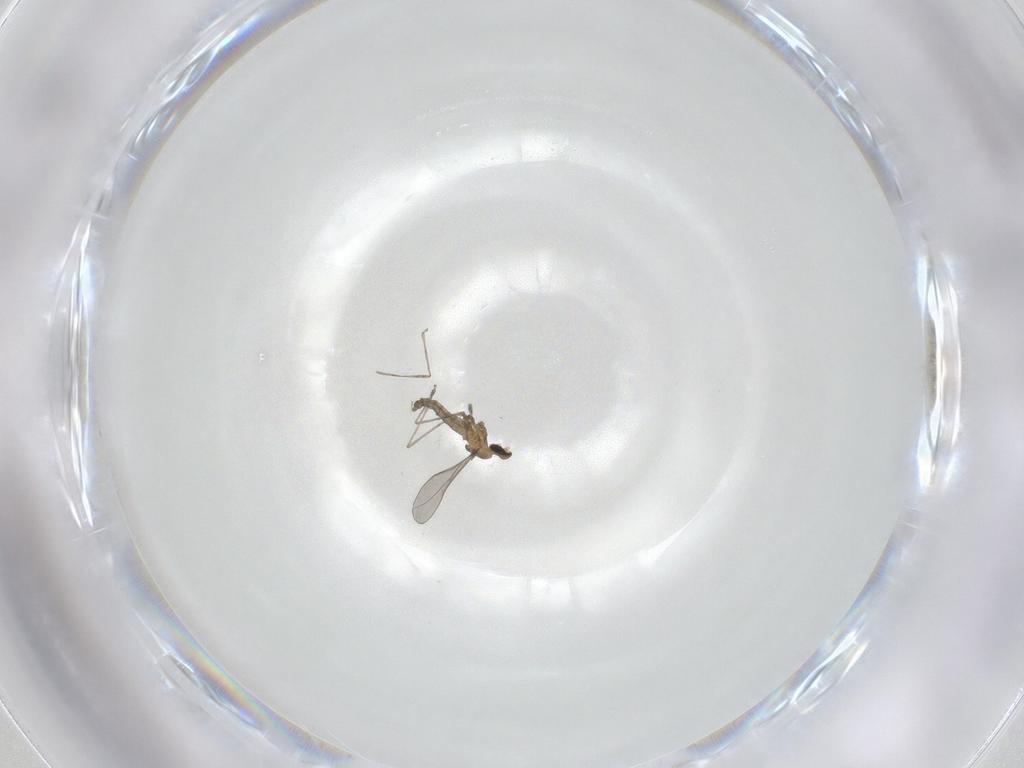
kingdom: Animalia
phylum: Arthropoda
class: Insecta
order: Diptera
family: Cecidomyiidae
